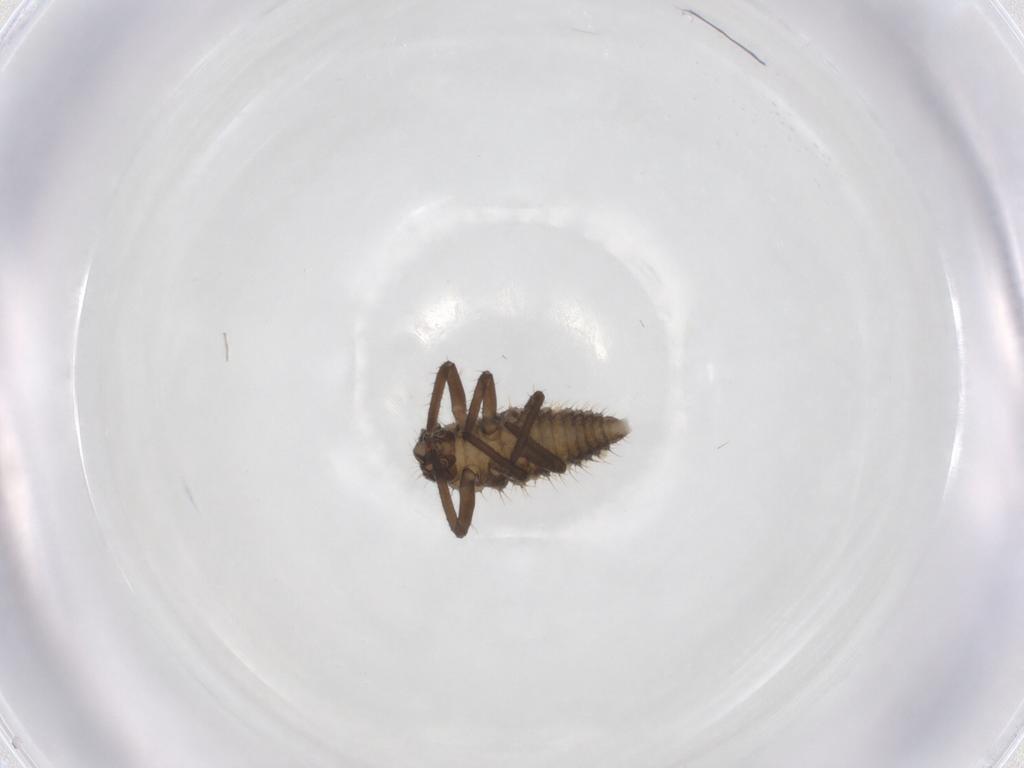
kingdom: Animalia
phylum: Arthropoda
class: Insecta
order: Coleoptera
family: Coccinellidae
